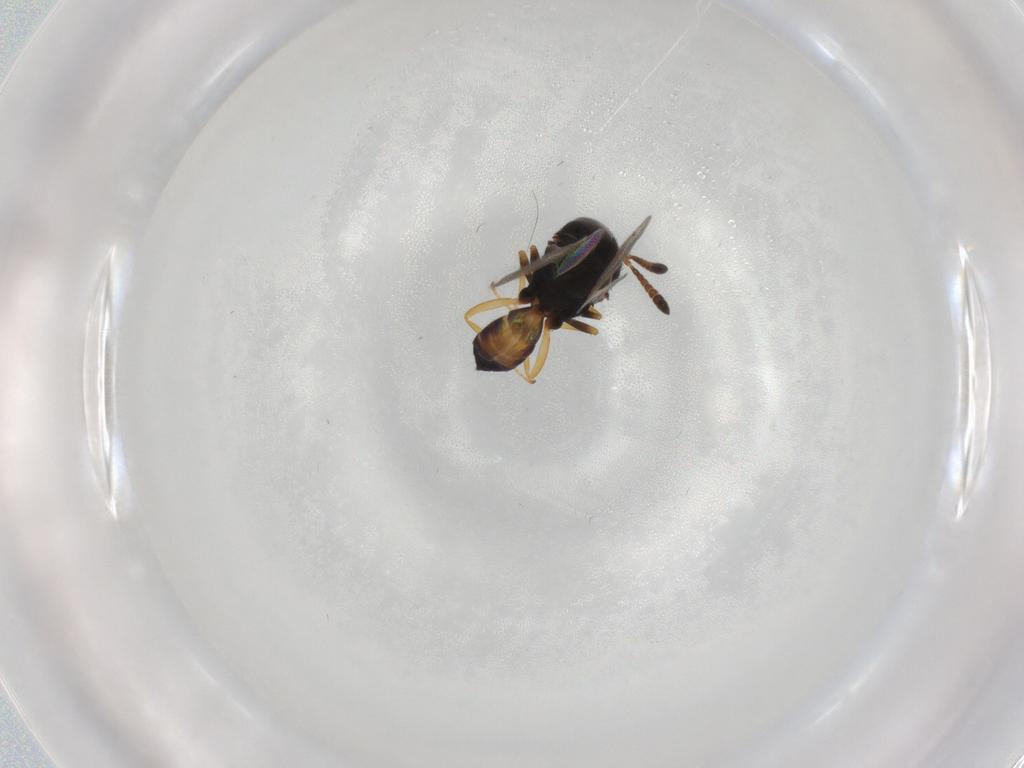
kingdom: Animalia
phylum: Arthropoda
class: Insecta
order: Hymenoptera
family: Pteromalidae
